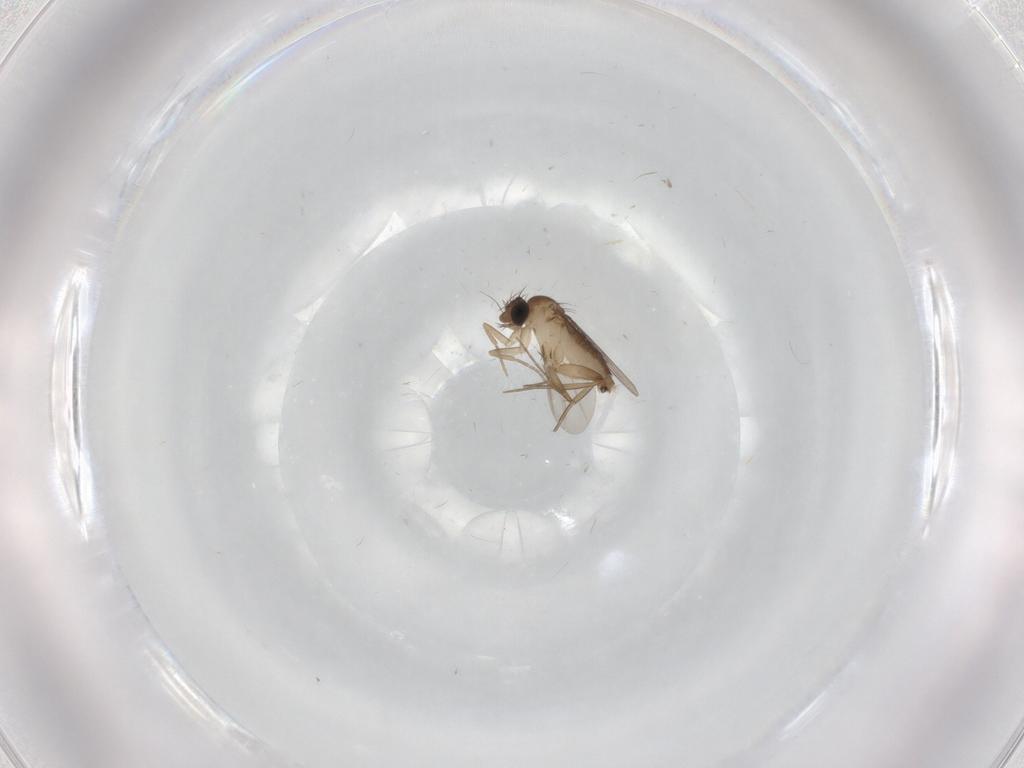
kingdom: Animalia
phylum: Arthropoda
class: Insecta
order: Diptera
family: Phoridae
